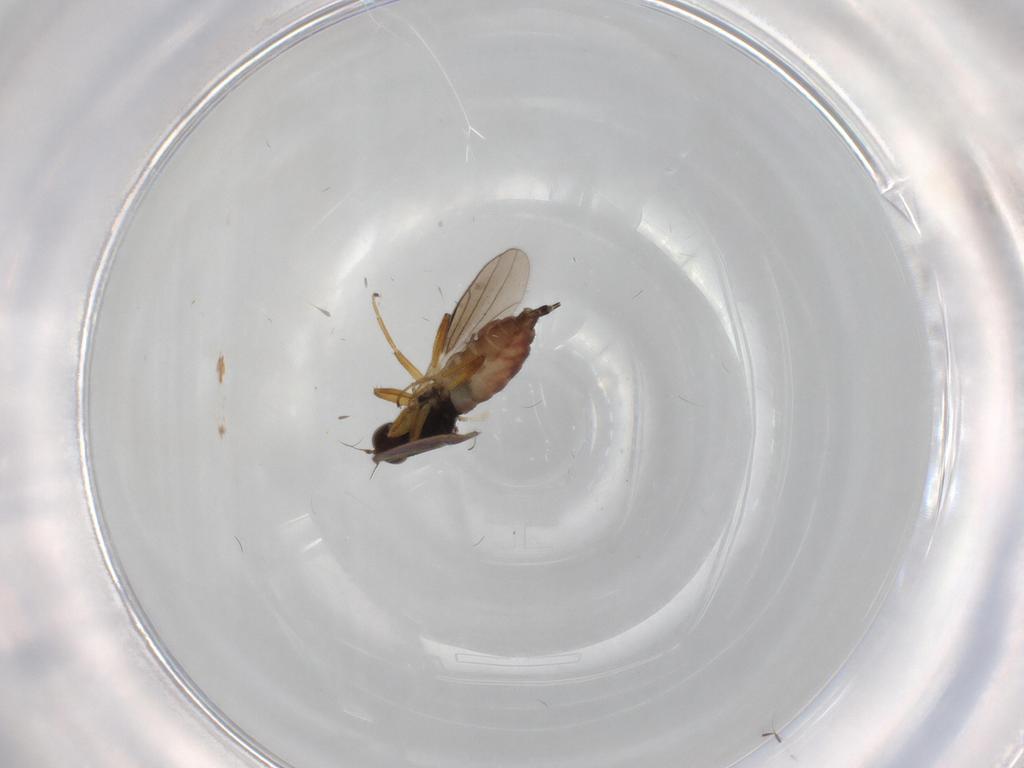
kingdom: Animalia
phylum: Arthropoda
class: Insecta
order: Diptera
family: Hybotidae
